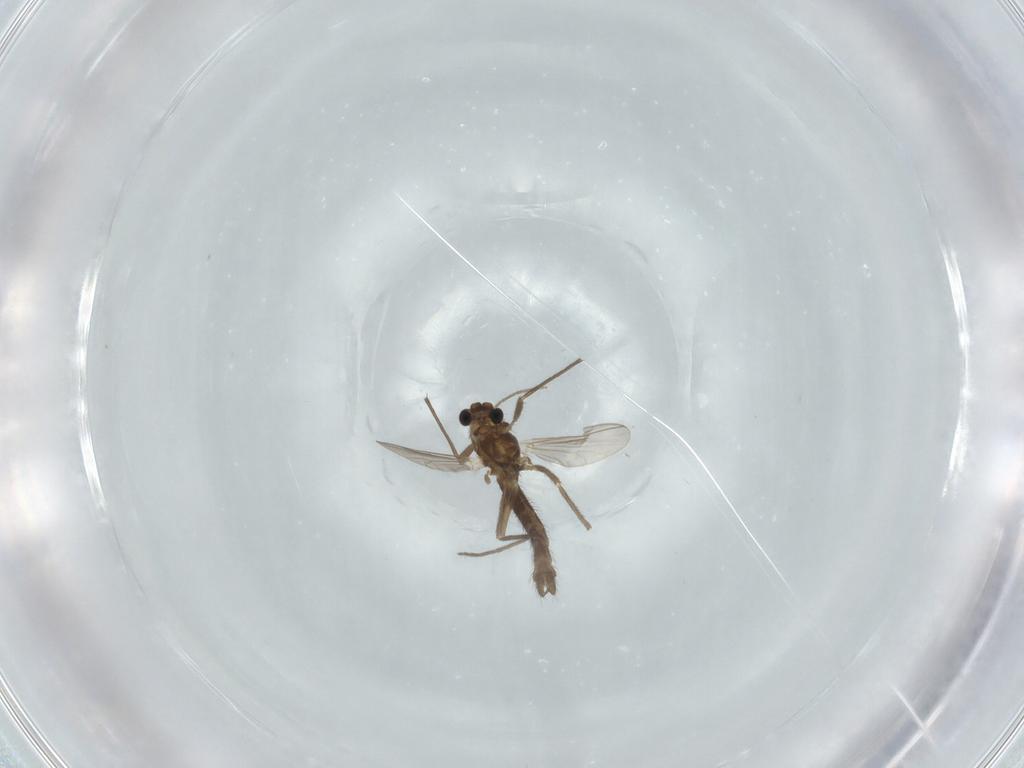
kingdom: Animalia
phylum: Arthropoda
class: Insecta
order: Diptera
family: Chironomidae
